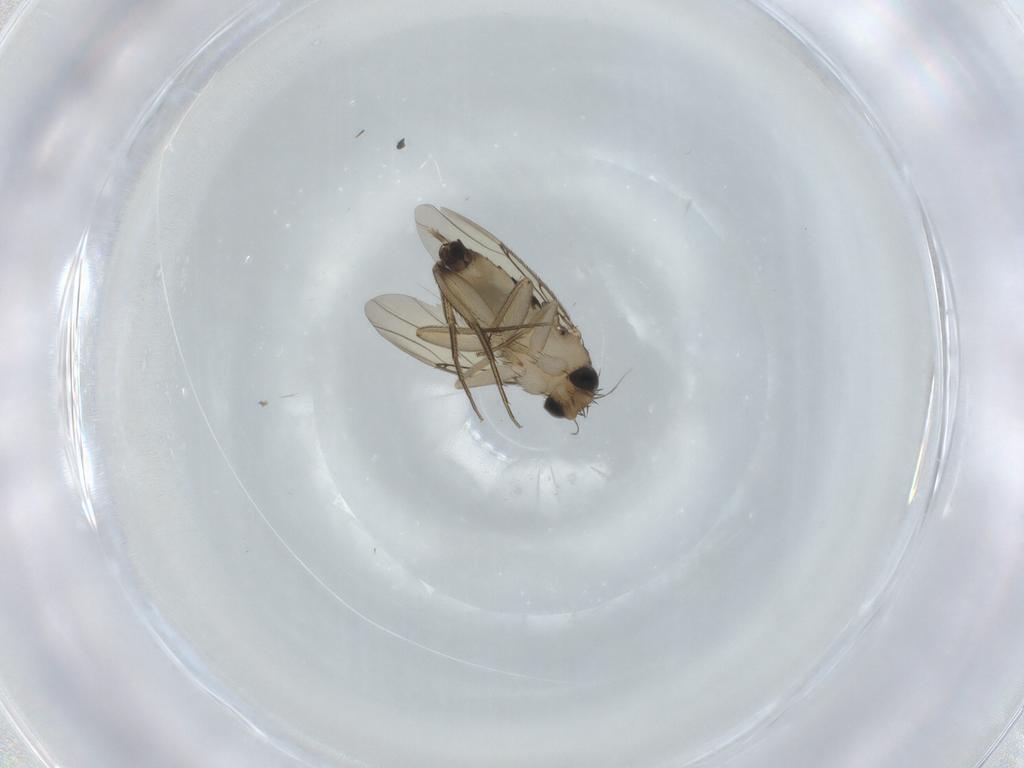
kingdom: Animalia
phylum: Arthropoda
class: Insecta
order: Diptera
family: Phoridae
